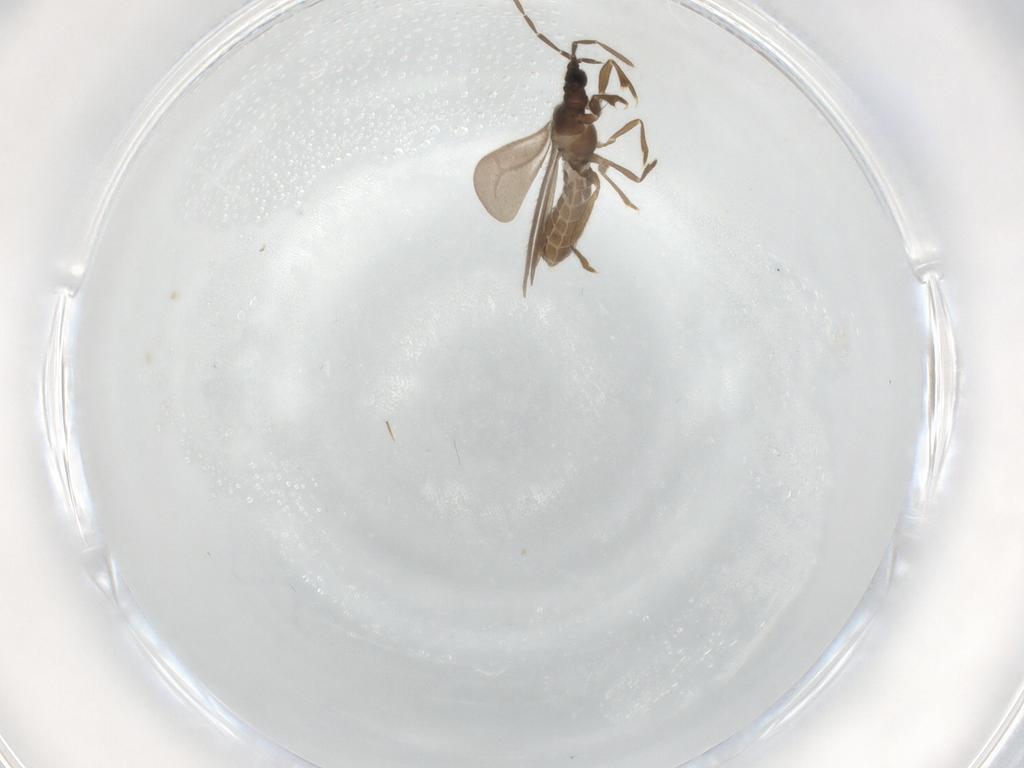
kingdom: Animalia
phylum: Arthropoda
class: Insecta
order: Hemiptera
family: Enicocephalidae
